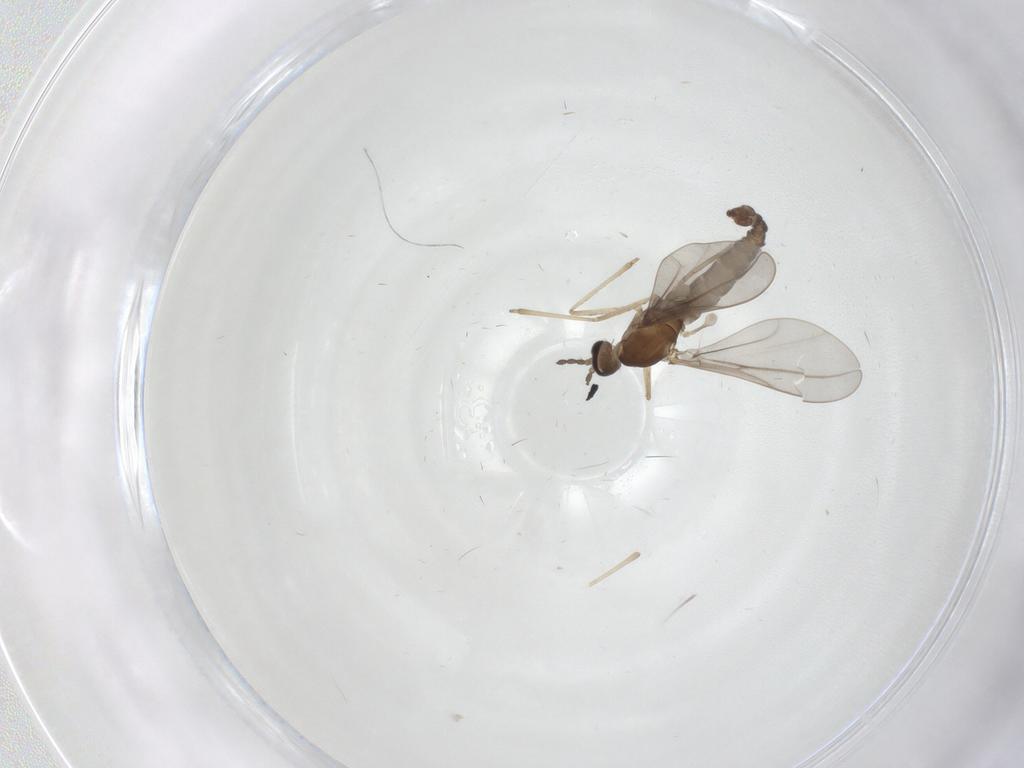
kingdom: Animalia
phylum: Arthropoda
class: Insecta
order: Diptera
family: Cecidomyiidae
